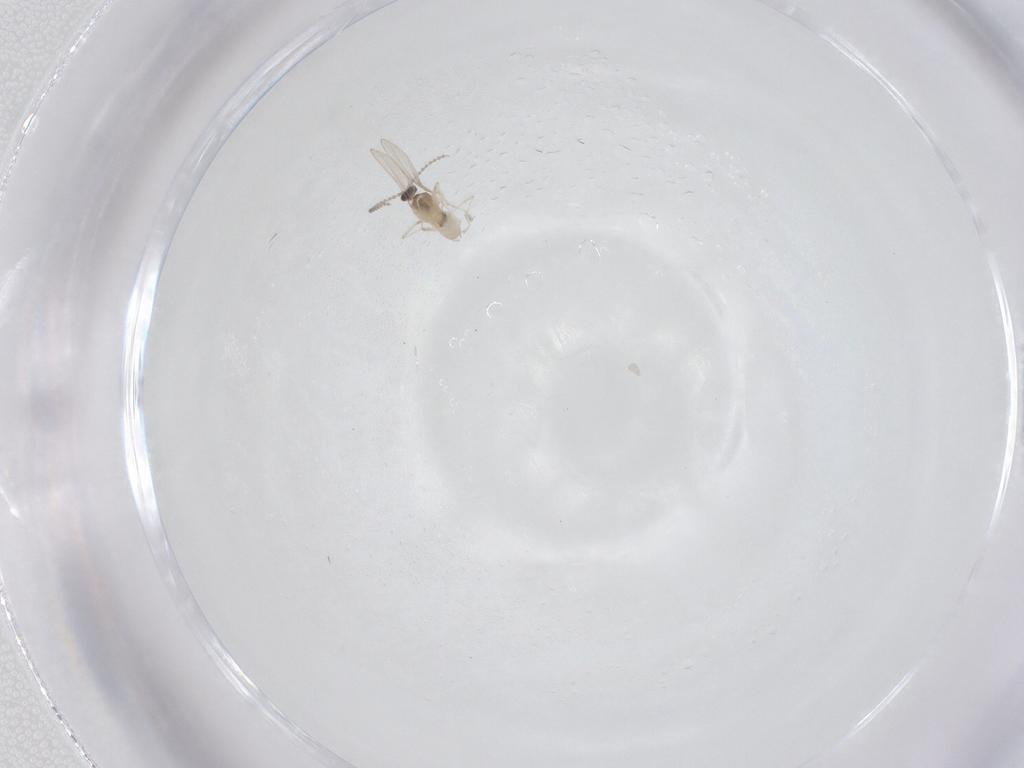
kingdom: Animalia
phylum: Arthropoda
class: Insecta
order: Diptera
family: Sciaridae
